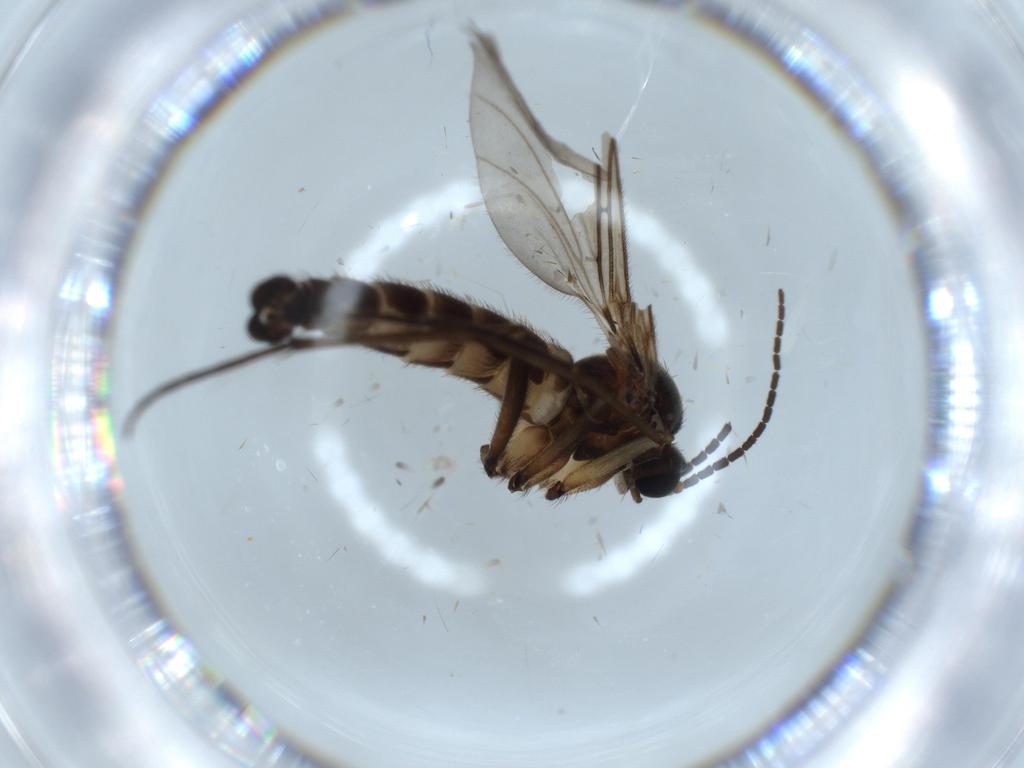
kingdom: Animalia
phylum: Arthropoda
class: Insecta
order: Diptera
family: Sciaridae
